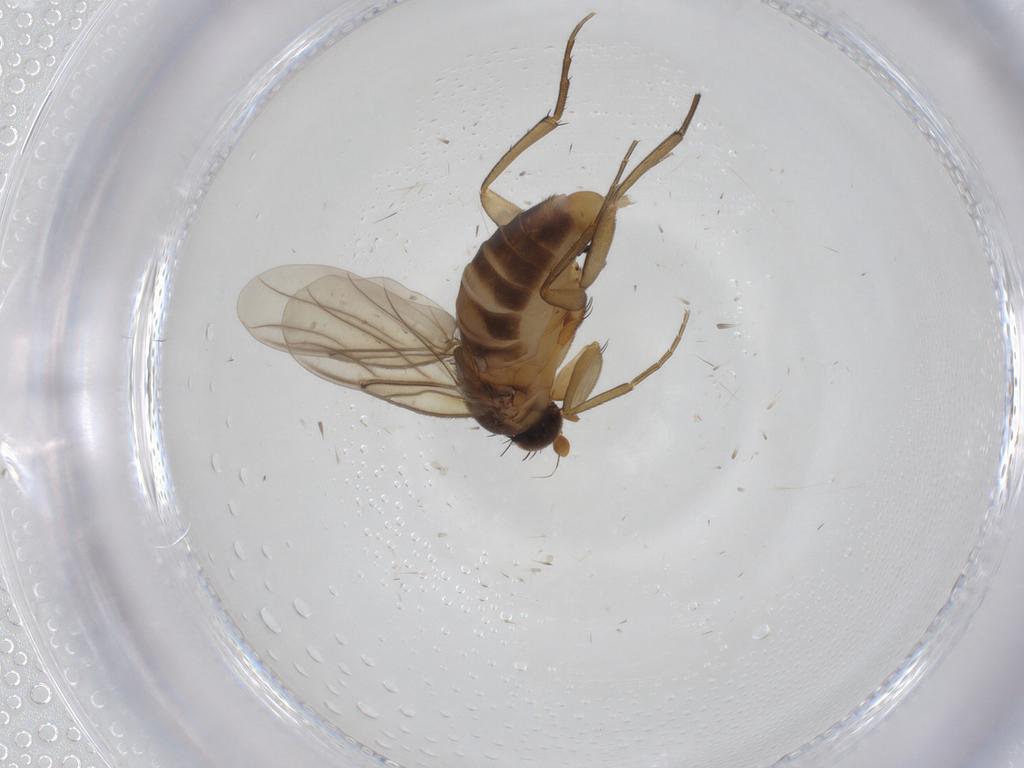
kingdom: Animalia
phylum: Arthropoda
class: Insecta
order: Diptera
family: Phoridae
